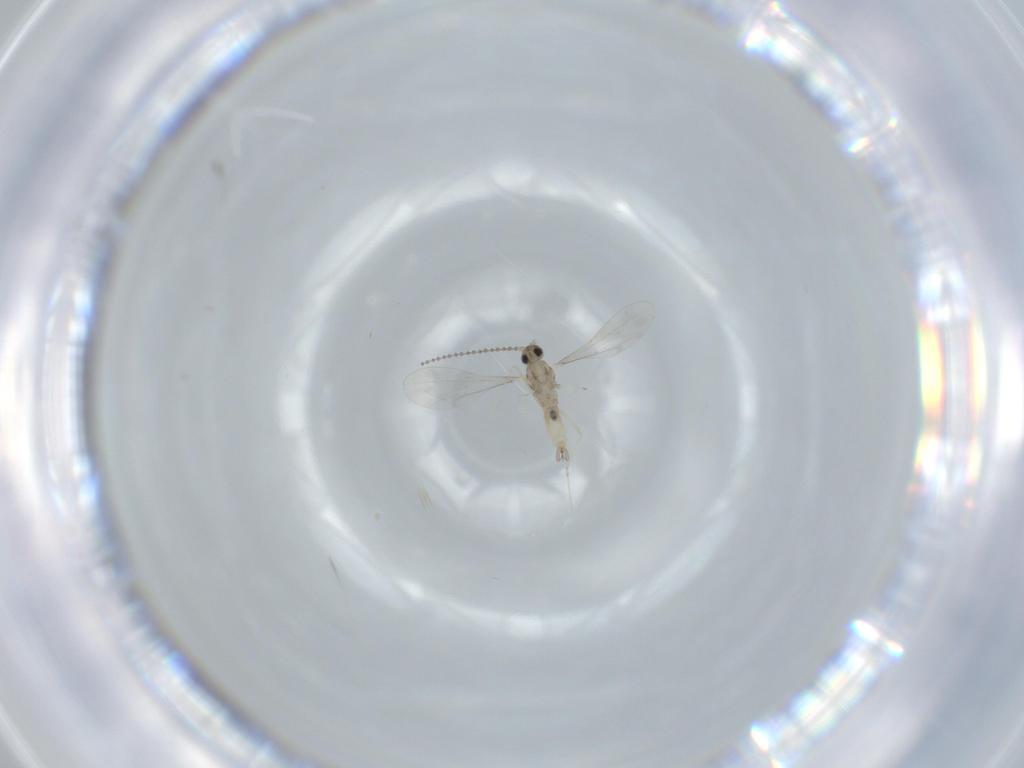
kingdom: Animalia
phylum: Arthropoda
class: Insecta
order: Diptera
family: Cecidomyiidae
